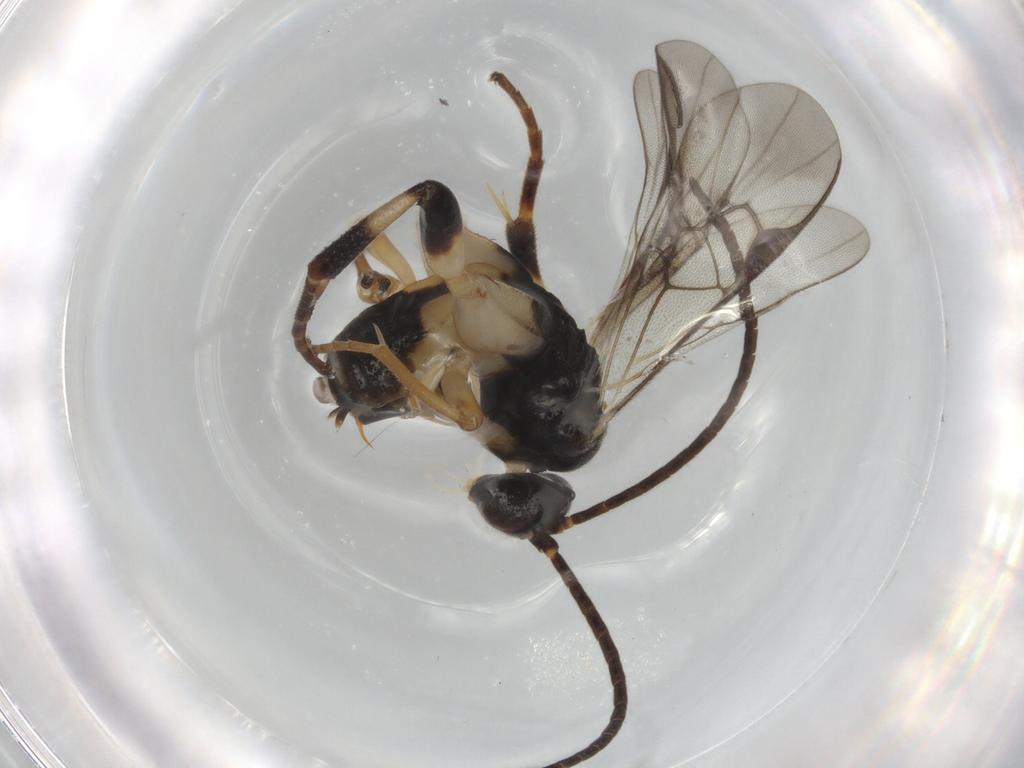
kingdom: Animalia
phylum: Arthropoda
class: Insecta
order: Hymenoptera
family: Braconidae
